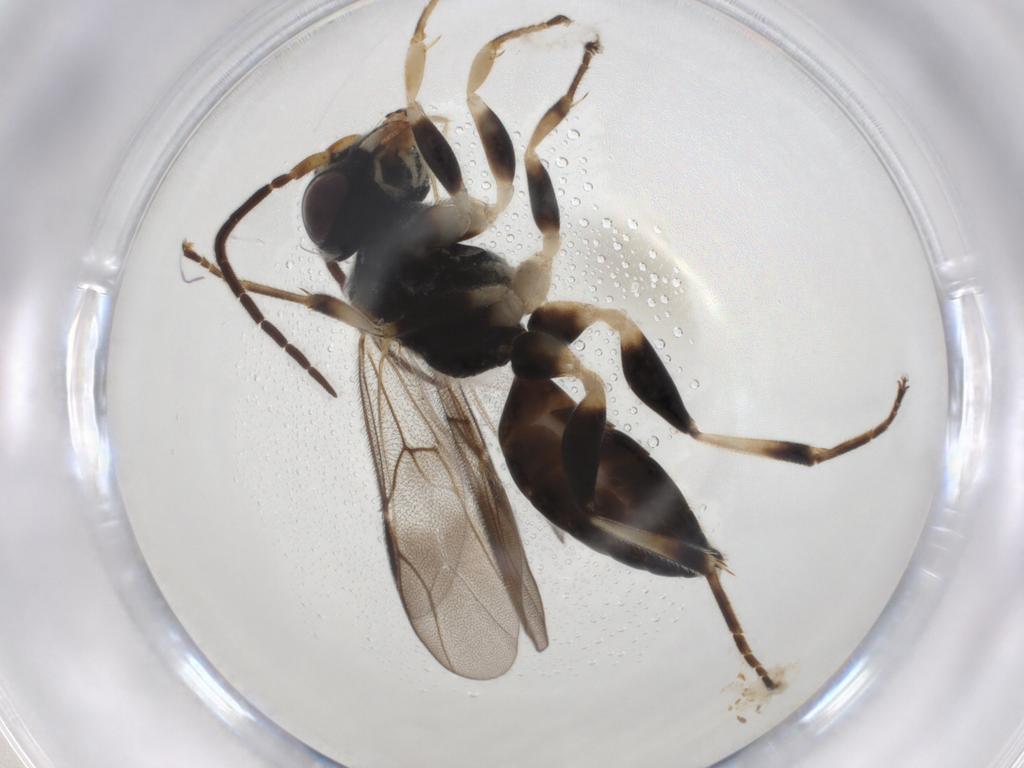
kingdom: Animalia
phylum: Arthropoda
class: Insecta
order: Hymenoptera
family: Dryinidae
